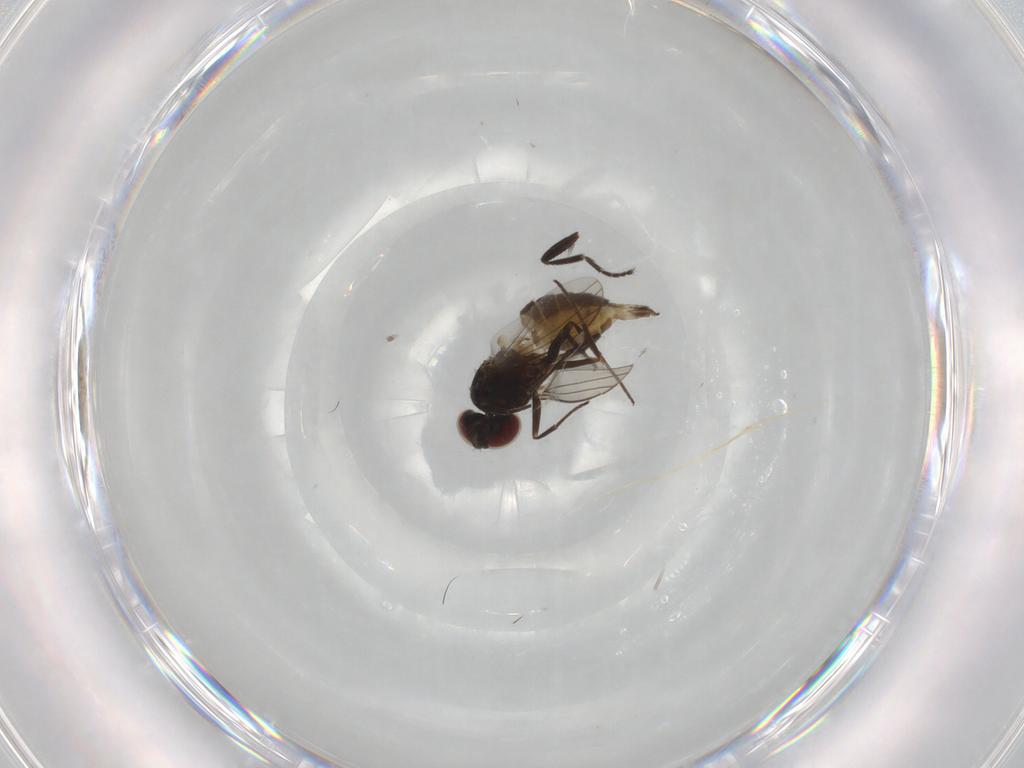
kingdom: Animalia
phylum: Arthropoda
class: Insecta
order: Diptera
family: Dolichopodidae
